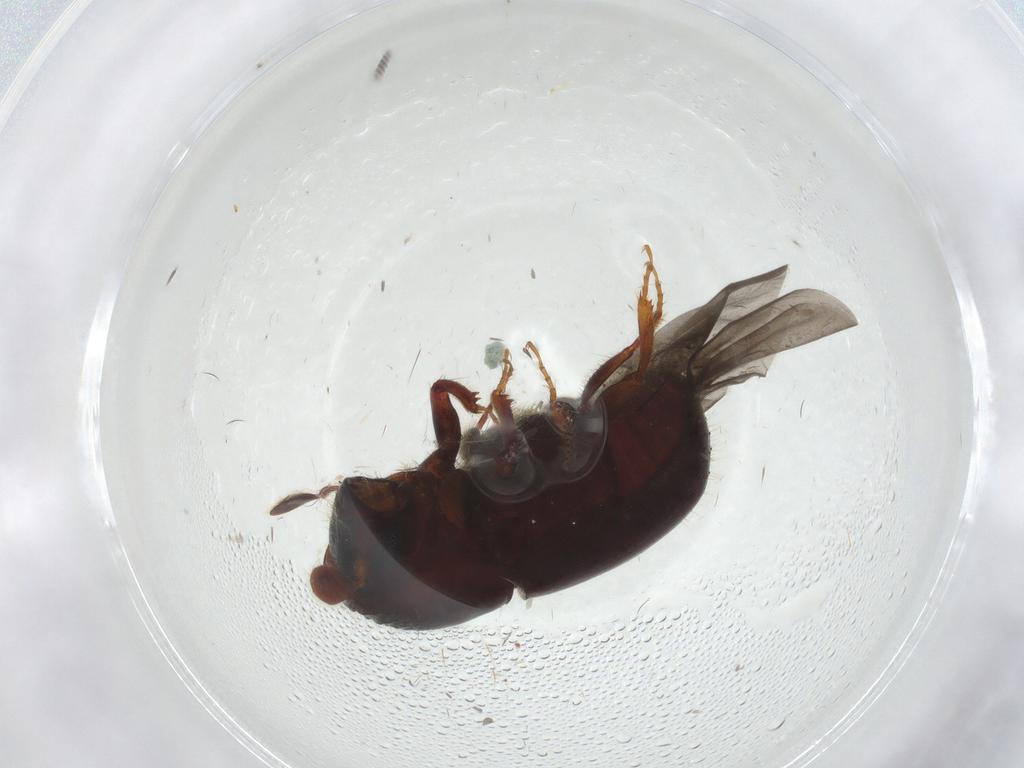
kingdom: Animalia
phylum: Arthropoda
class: Insecta
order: Coleoptera
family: Curculionidae
